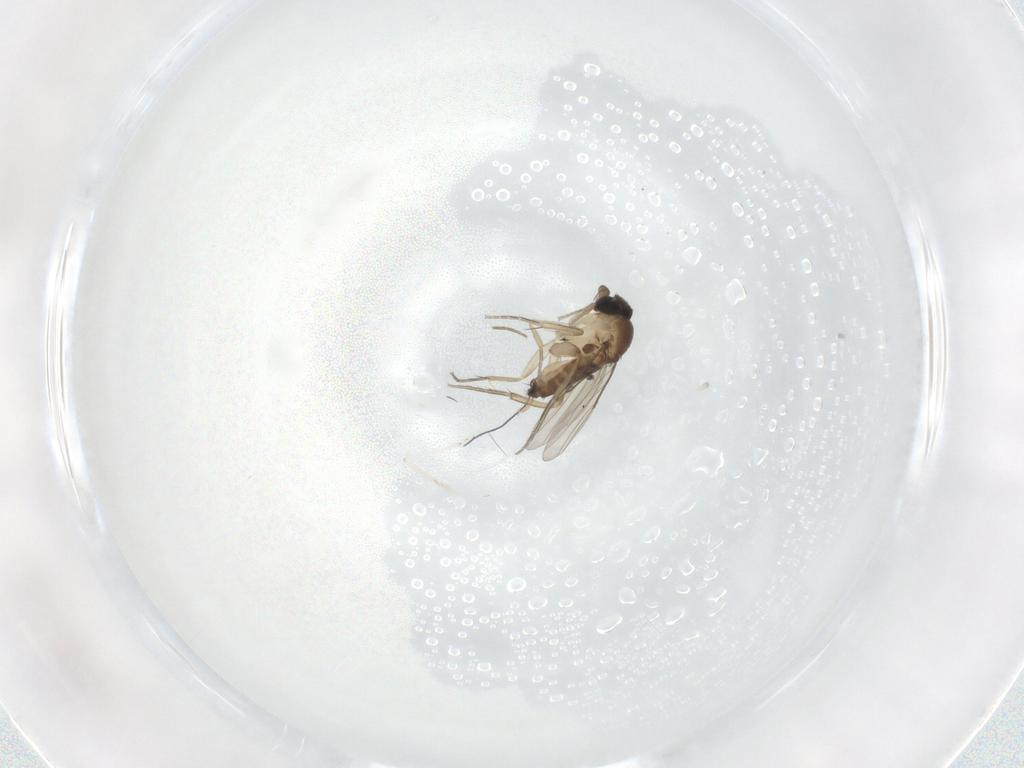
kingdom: Animalia
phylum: Arthropoda
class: Insecta
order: Diptera
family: Phoridae
